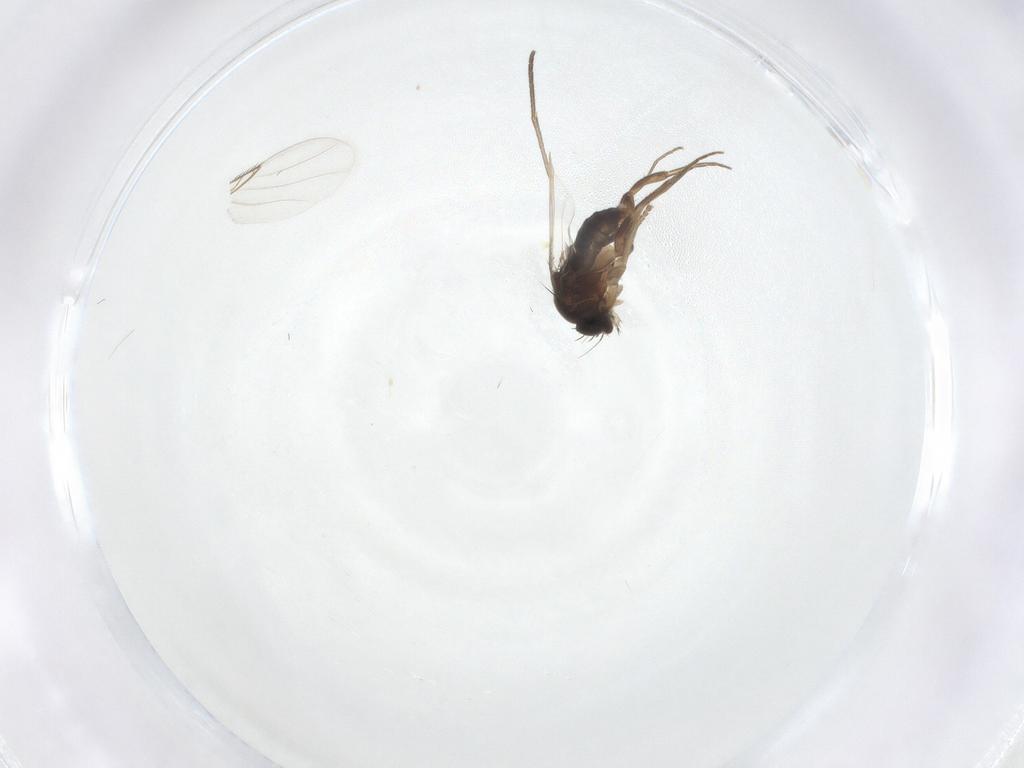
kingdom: Animalia
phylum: Arthropoda
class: Insecta
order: Diptera
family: Phoridae
